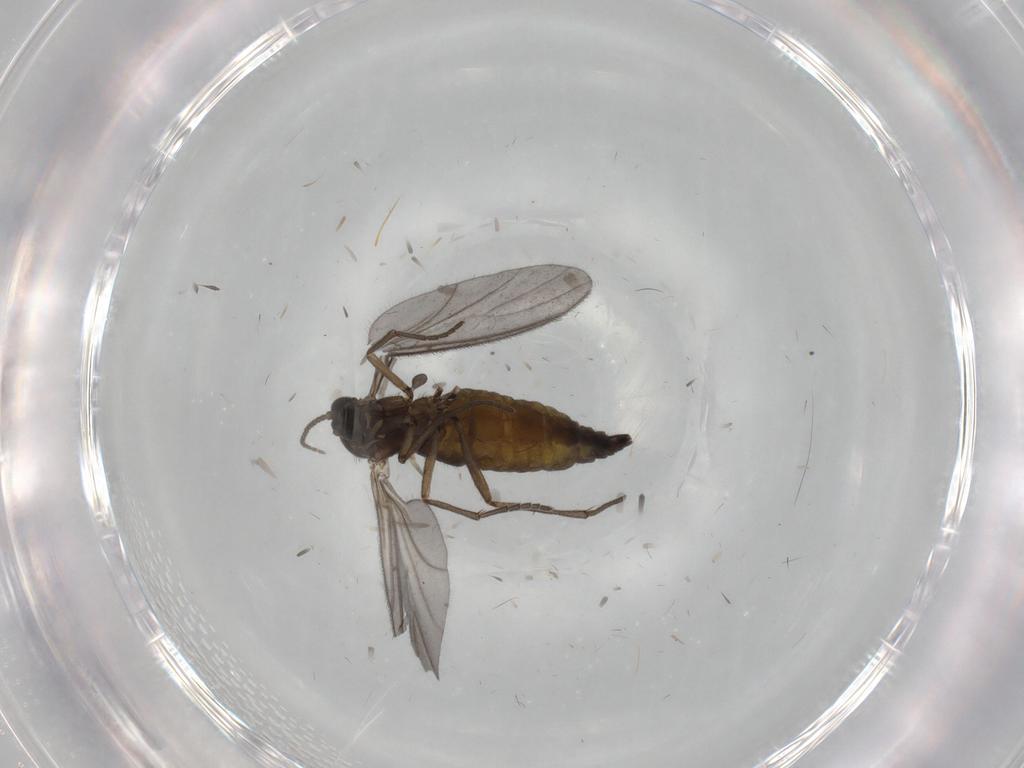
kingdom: Animalia
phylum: Arthropoda
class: Insecta
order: Diptera
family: Sciaridae
